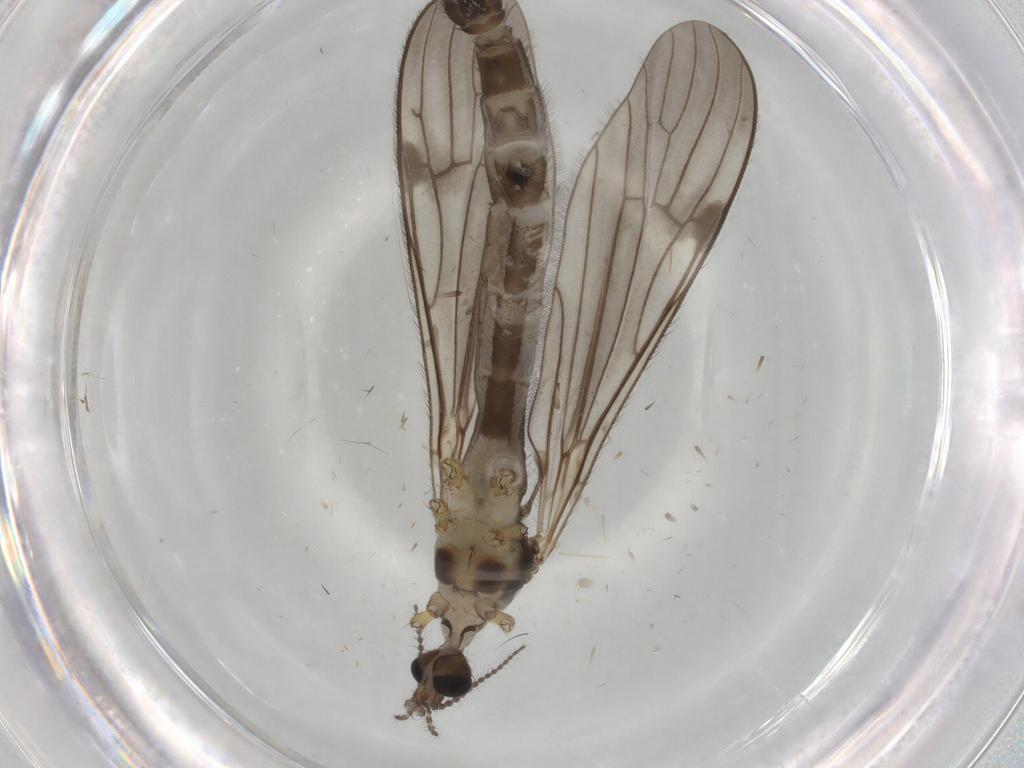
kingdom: Animalia
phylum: Arthropoda
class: Insecta
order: Diptera
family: Limoniidae
